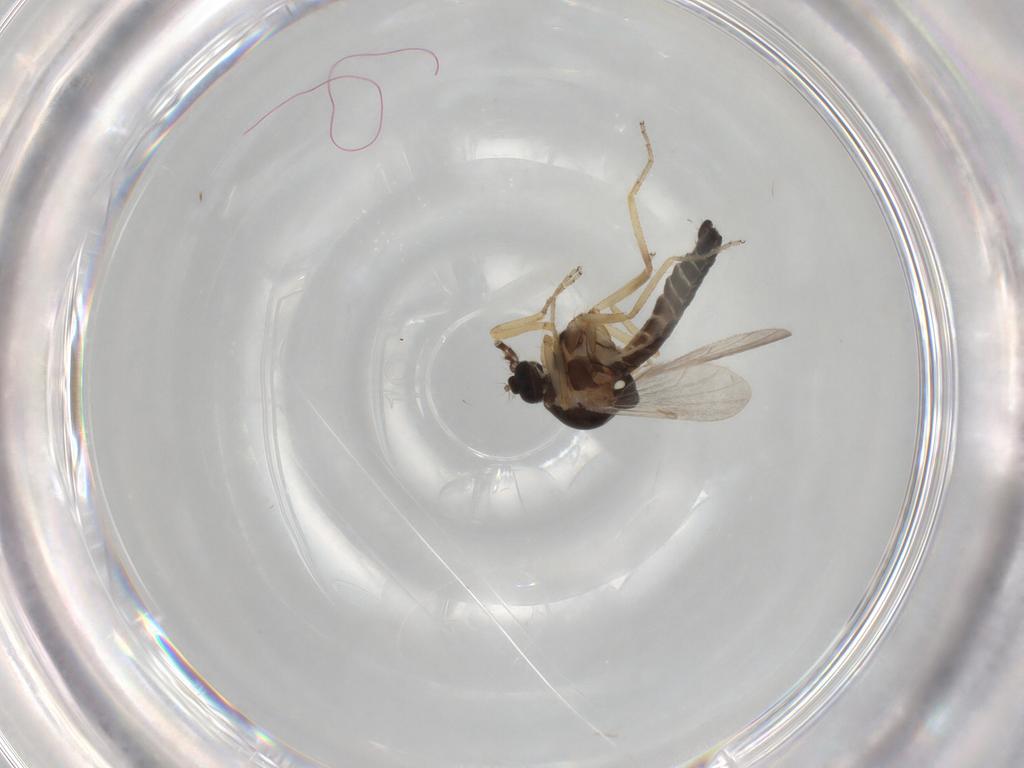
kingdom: Animalia
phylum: Arthropoda
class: Insecta
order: Diptera
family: Ceratopogonidae
